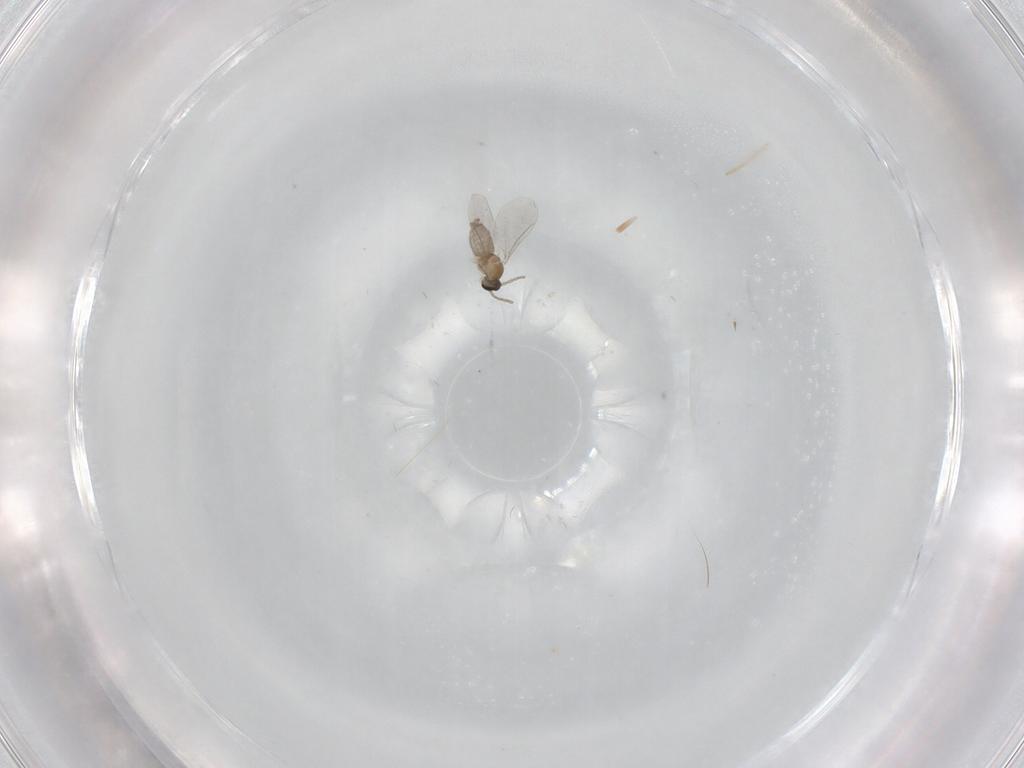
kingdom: Animalia
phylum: Arthropoda
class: Insecta
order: Diptera
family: Cecidomyiidae
